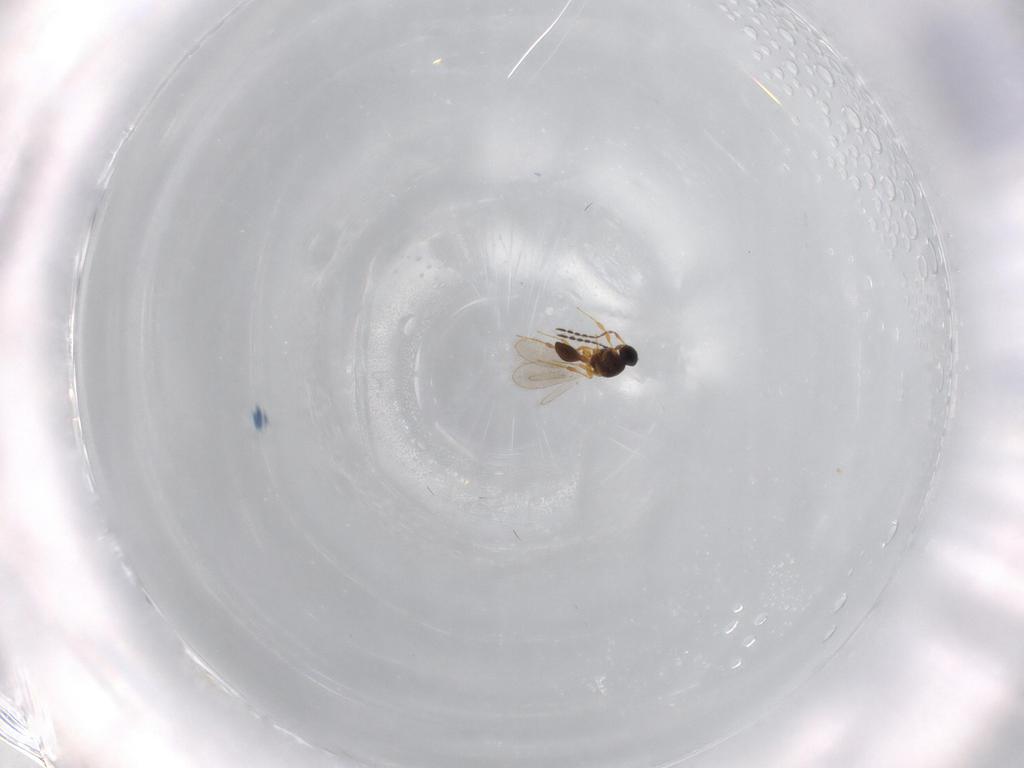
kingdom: Animalia
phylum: Arthropoda
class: Insecta
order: Hymenoptera
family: Platygastridae
